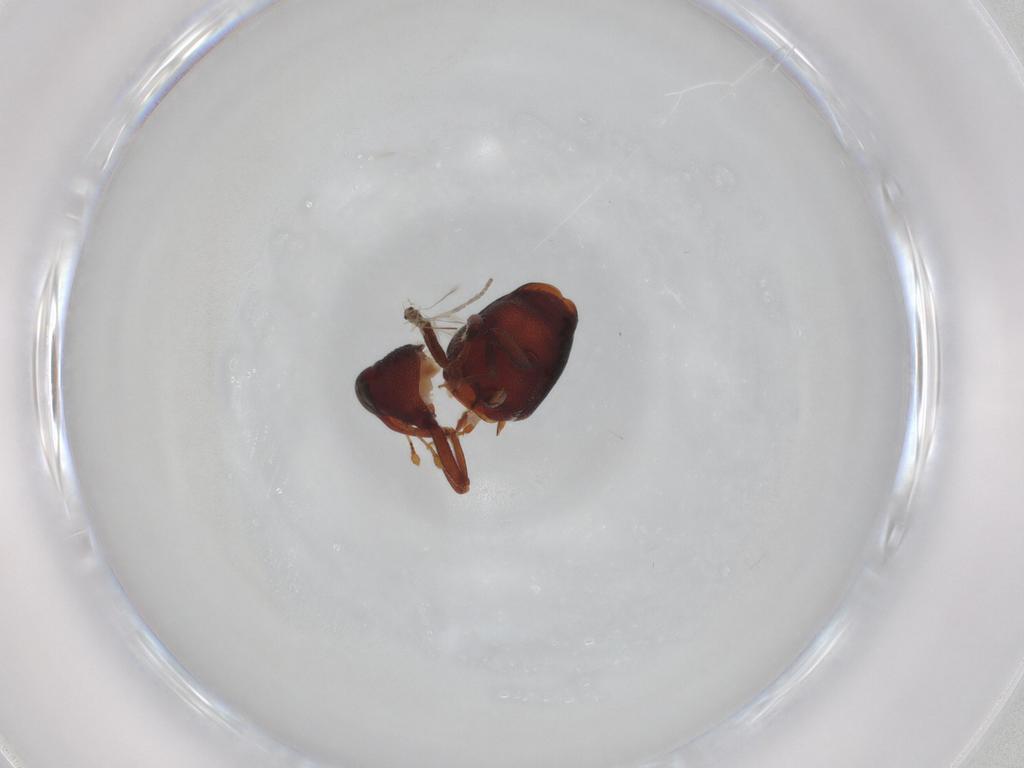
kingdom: Animalia
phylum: Arthropoda
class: Insecta
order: Coleoptera
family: Curculionidae
